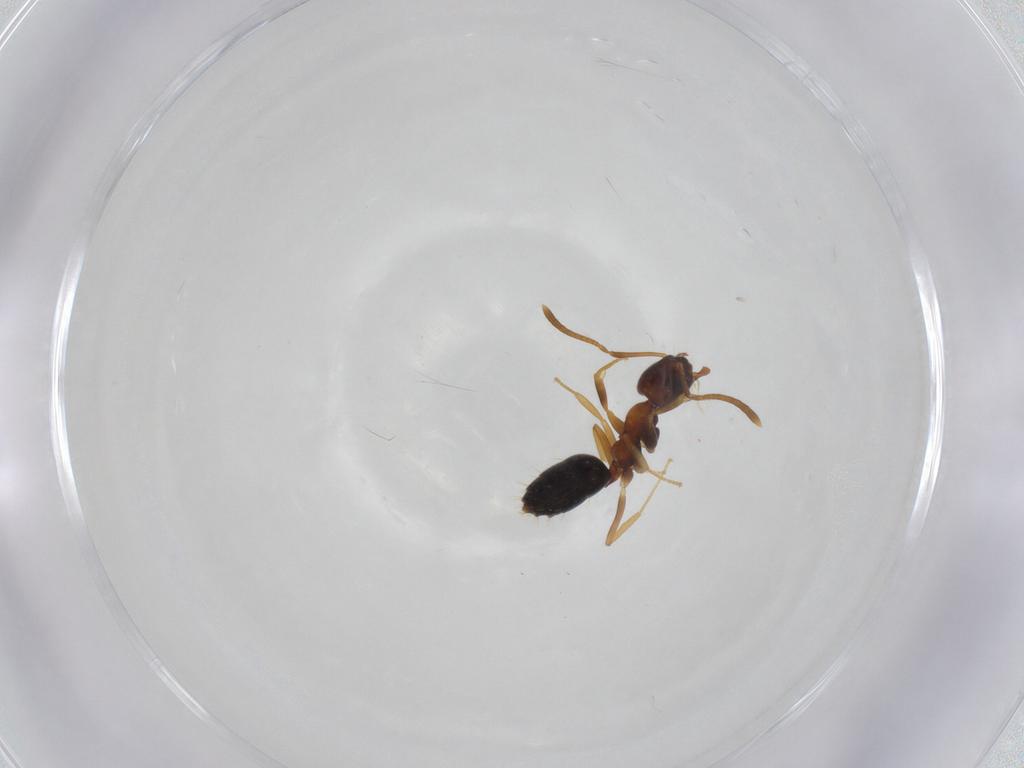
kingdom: Animalia
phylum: Arthropoda
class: Insecta
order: Hymenoptera
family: Formicidae
